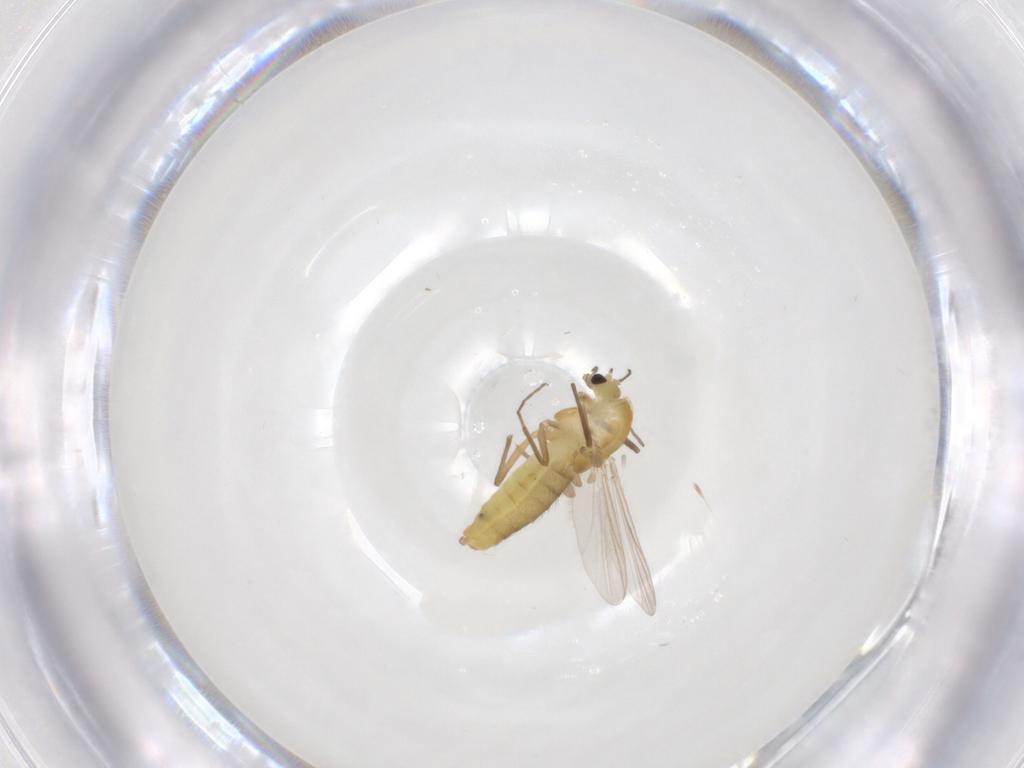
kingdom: Animalia
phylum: Arthropoda
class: Insecta
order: Diptera
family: Chironomidae
